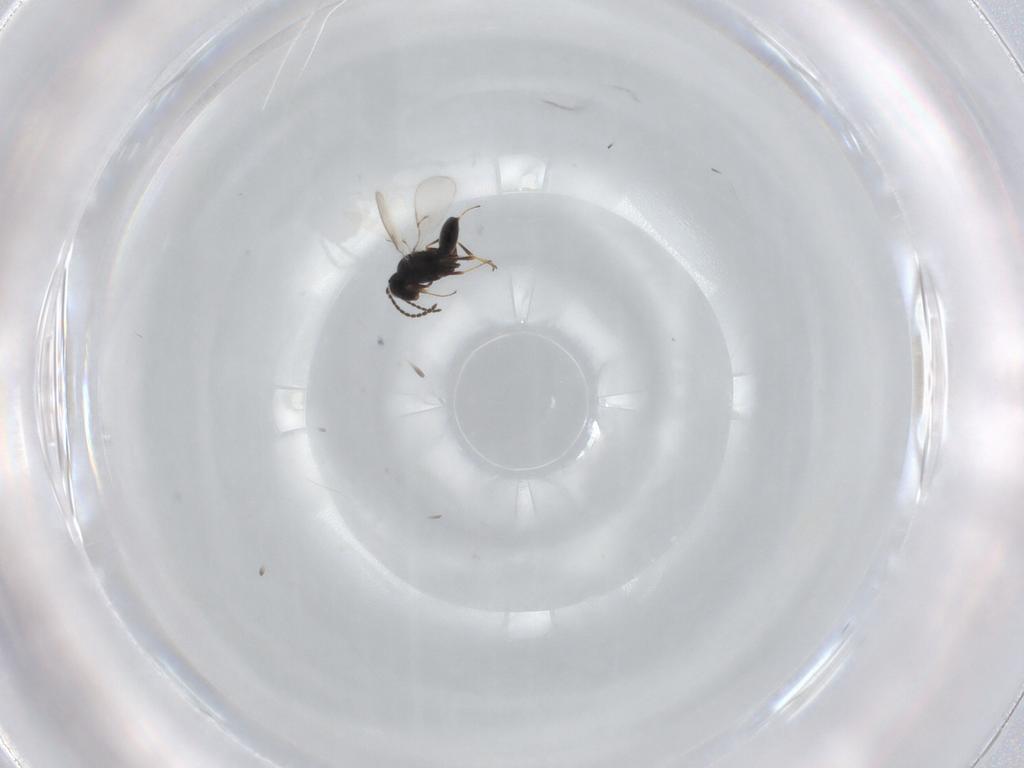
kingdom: Animalia
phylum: Arthropoda
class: Insecta
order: Hymenoptera
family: Scelionidae
